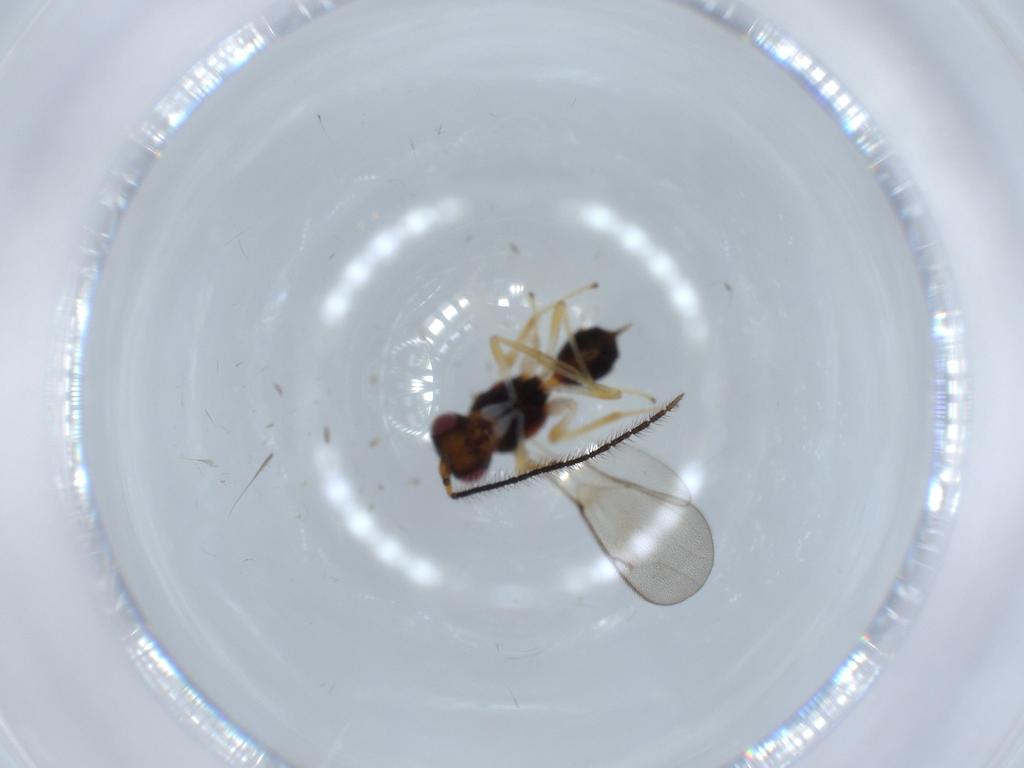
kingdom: Animalia
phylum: Arthropoda
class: Insecta
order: Hymenoptera
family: Diparidae
